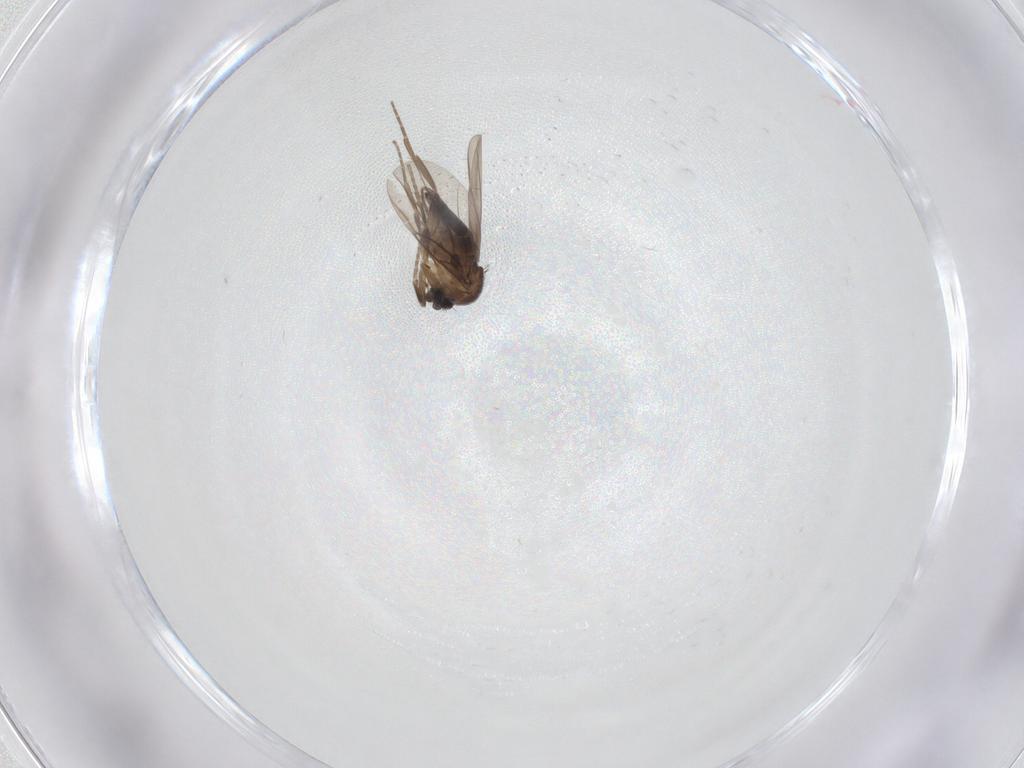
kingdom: Animalia
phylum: Arthropoda
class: Insecta
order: Diptera
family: Phoridae
